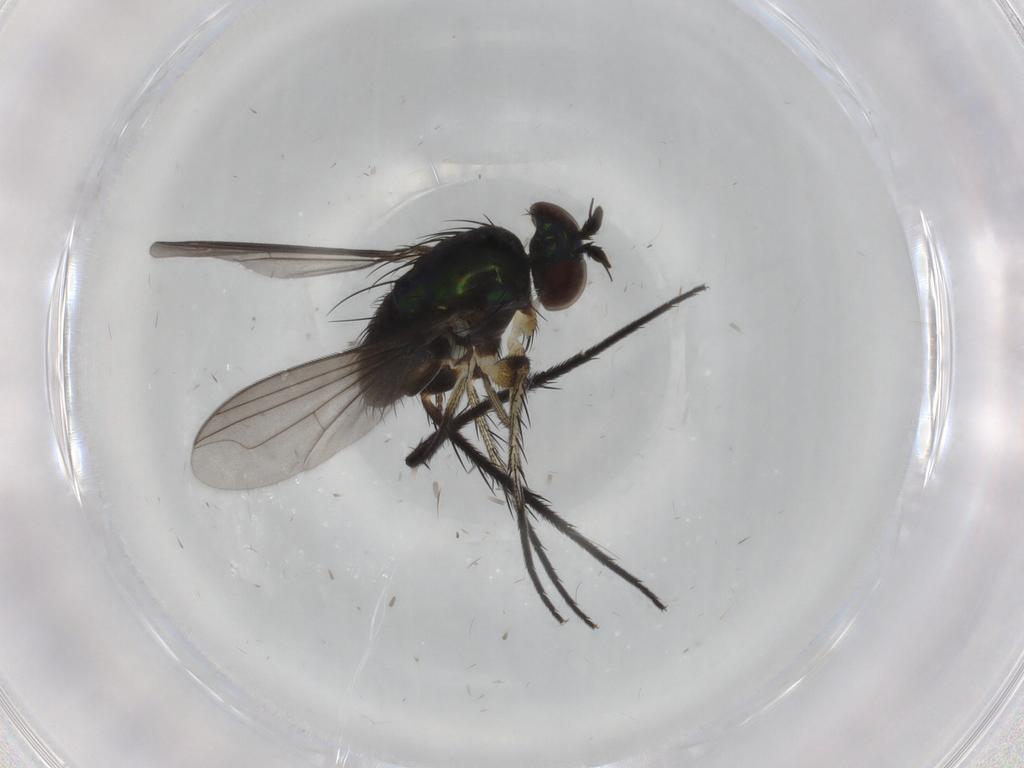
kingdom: Animalia
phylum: Arthropoda
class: Insecta
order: Diptera
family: Dolichopodidae
